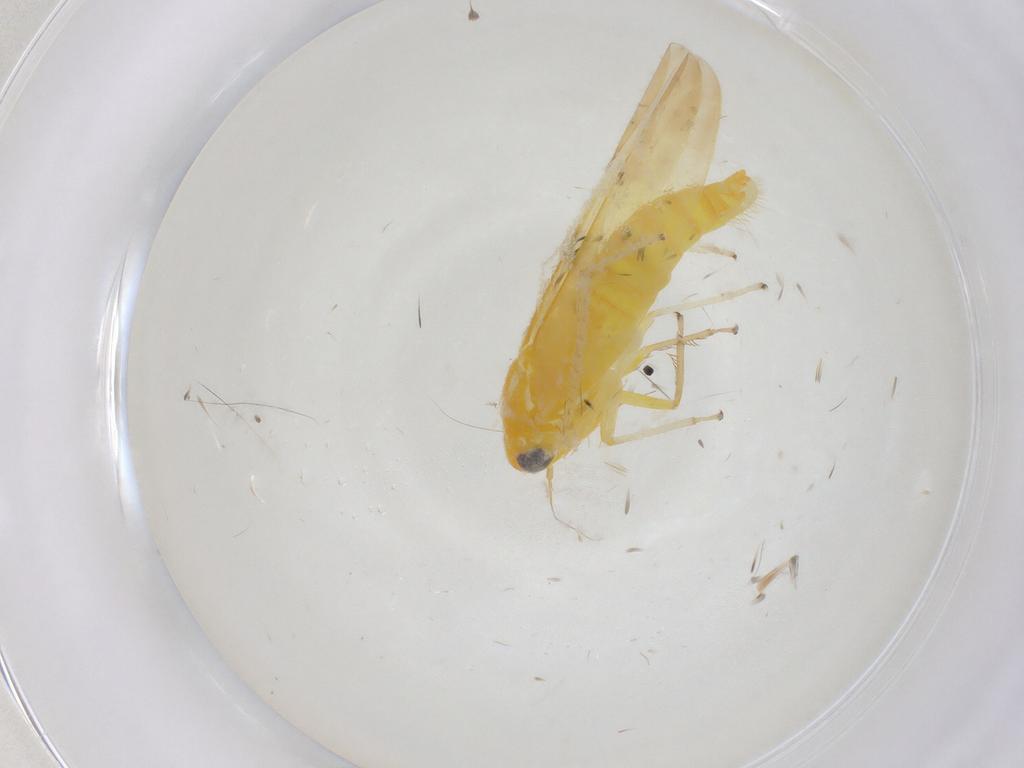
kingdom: Animalia
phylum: Arthropoda
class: Insecta
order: Hemiptera
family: Cicadellidae
